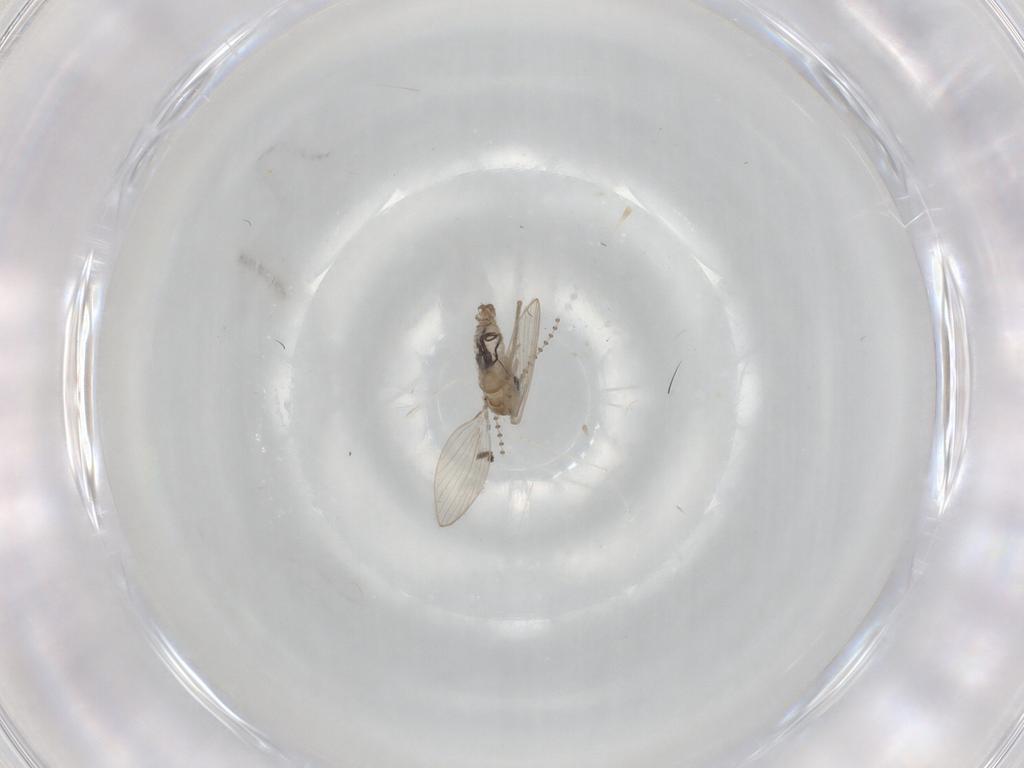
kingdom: Animalia
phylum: Arthropoda
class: Insecta
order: Diptera
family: Psychodidae
